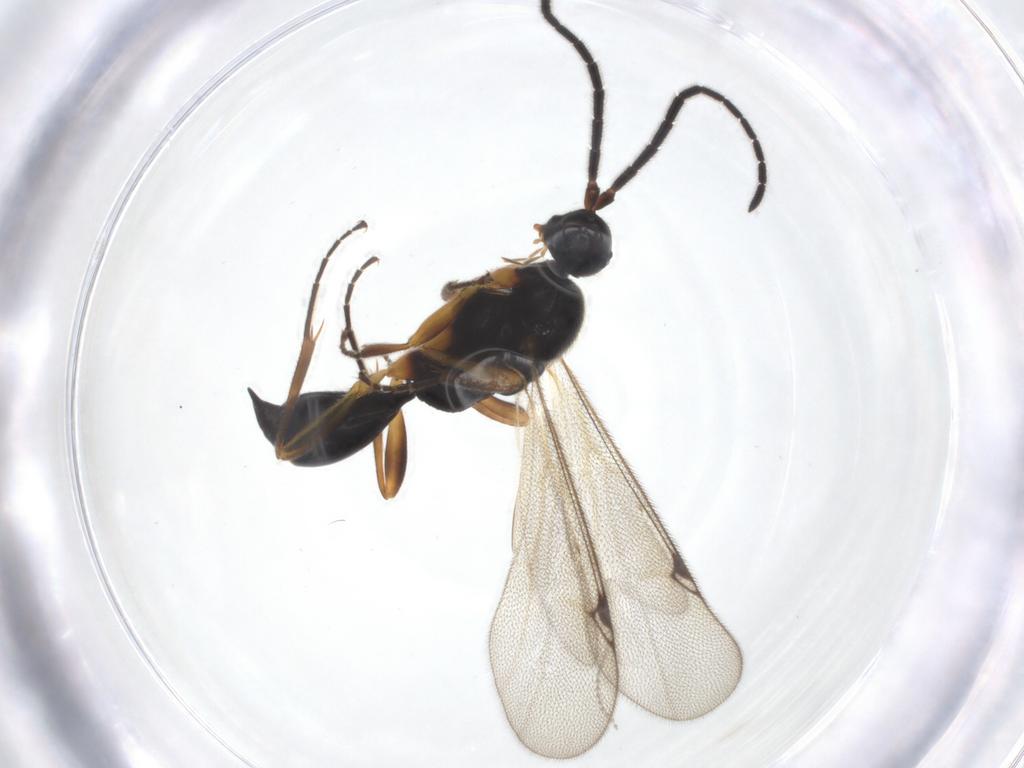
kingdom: Animalia
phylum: Arthropoda
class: Insecta
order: Hymenoptera
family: Proctotrupidae
